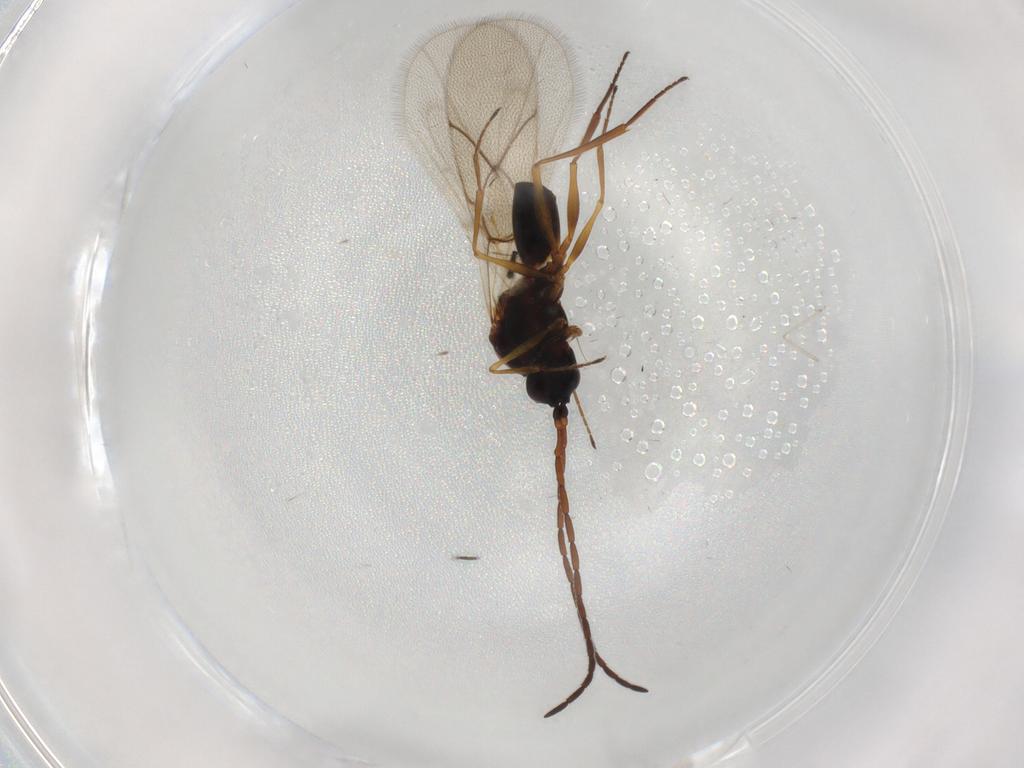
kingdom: Animalia
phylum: Arthropoda
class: Insecta
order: Hymenoptera
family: Figitidae
